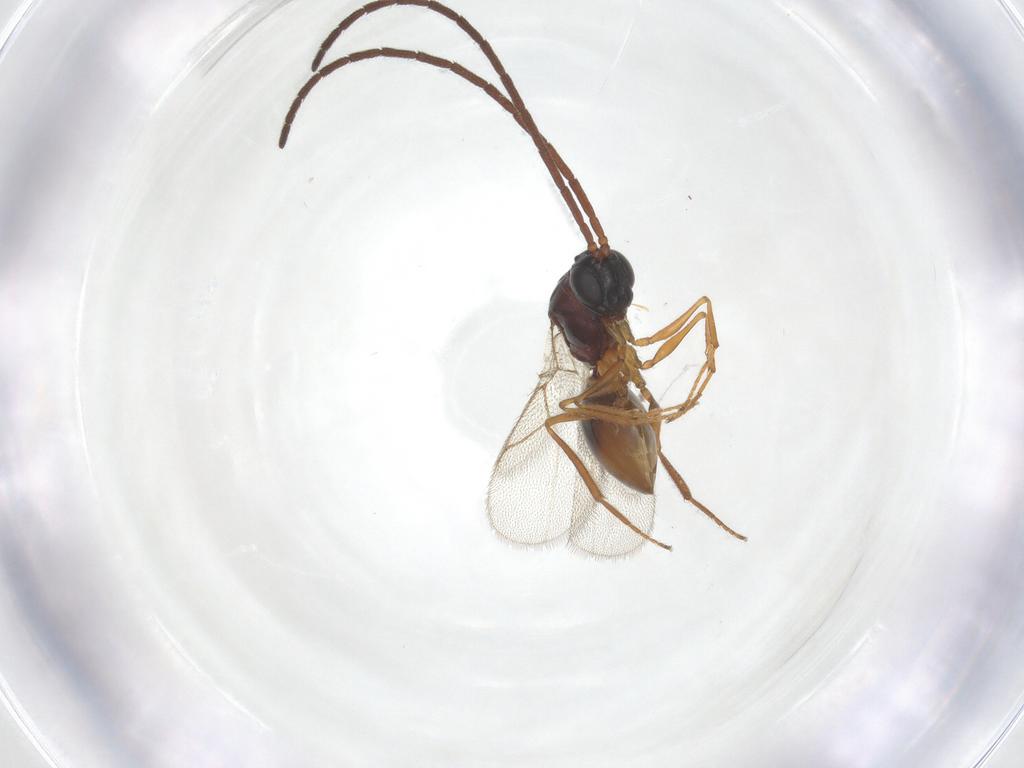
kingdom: Animalia
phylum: Arthropoda
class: Insecta
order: Hymenoptera
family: Figitidae
